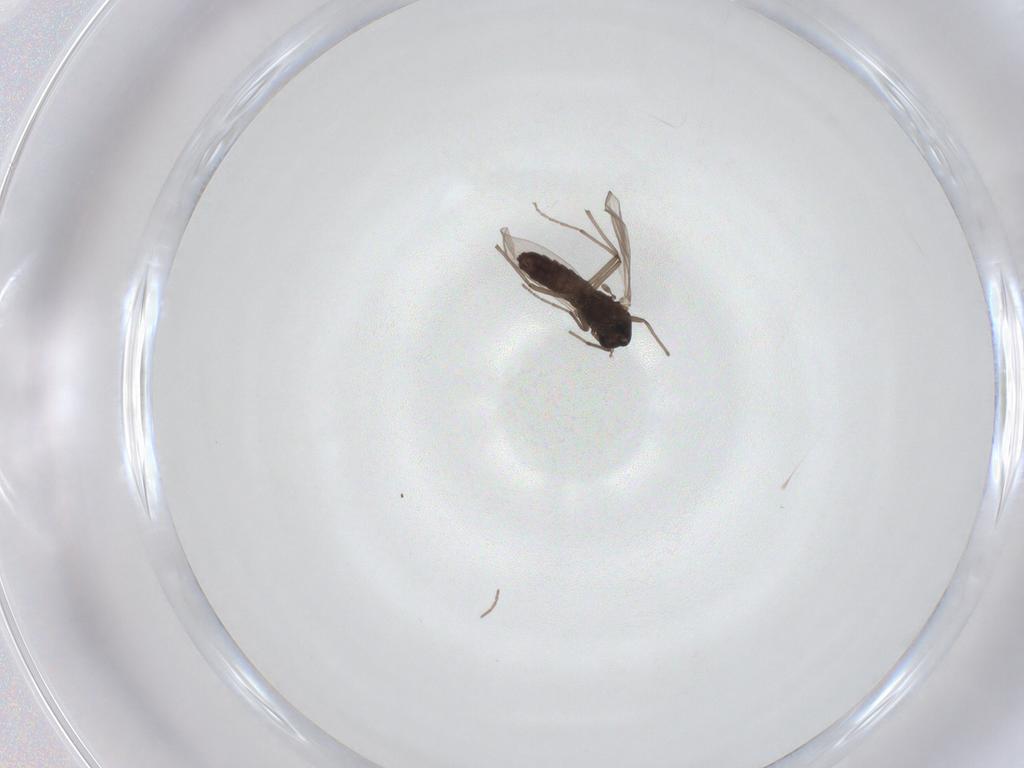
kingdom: Animalia
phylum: Arthropoda
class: Insecta
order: Diptera
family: Chironomidae
